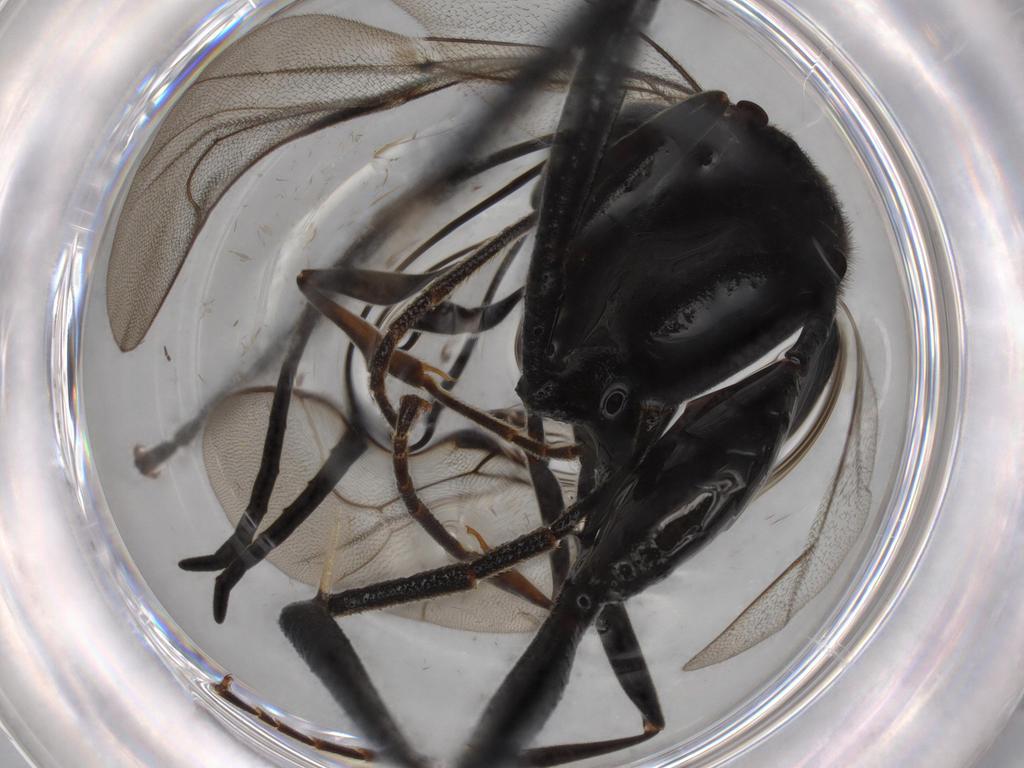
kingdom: Animalia
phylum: Arthropoda
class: Insecta
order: Hymenoptera
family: Evaniidae
